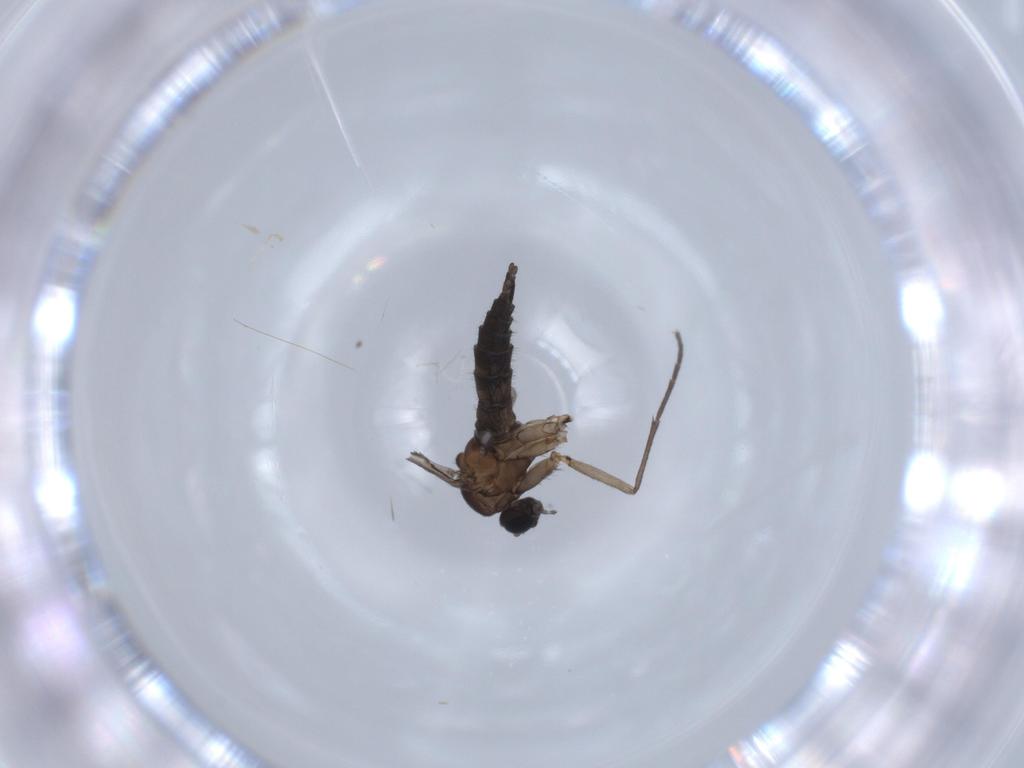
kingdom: Animalia
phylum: Arthropoda
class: Insecta
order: Diptera
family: Sciaridae
